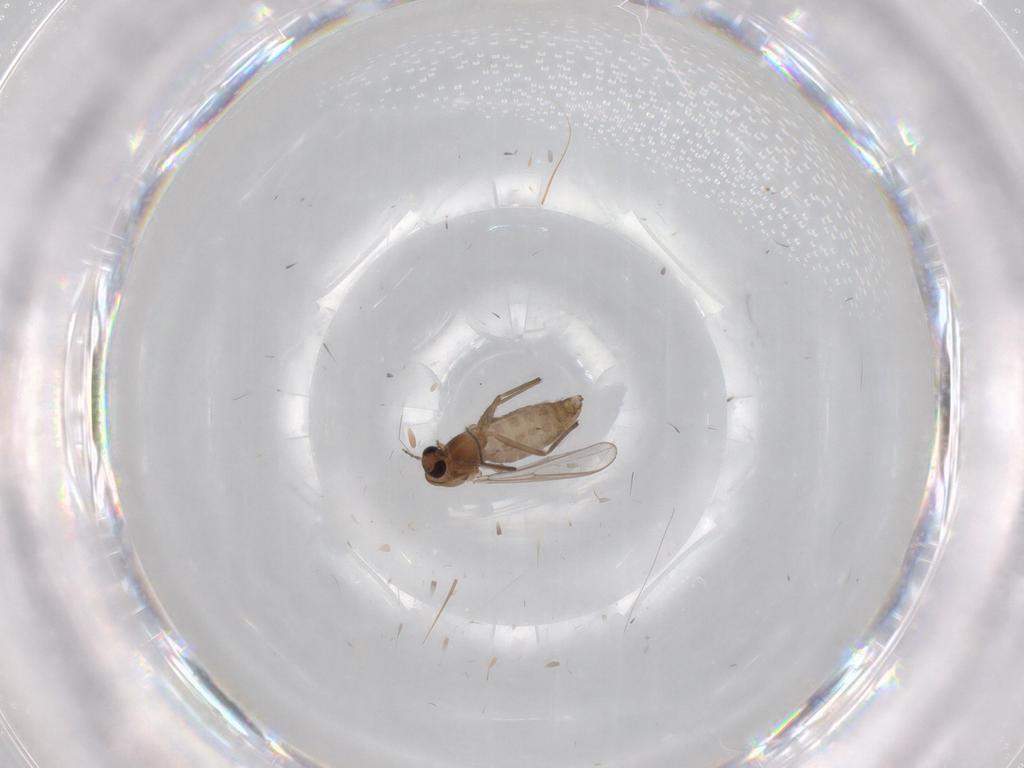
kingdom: Animalia
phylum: Arthropoda
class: Insecta
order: Diptera
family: Chironomidae
